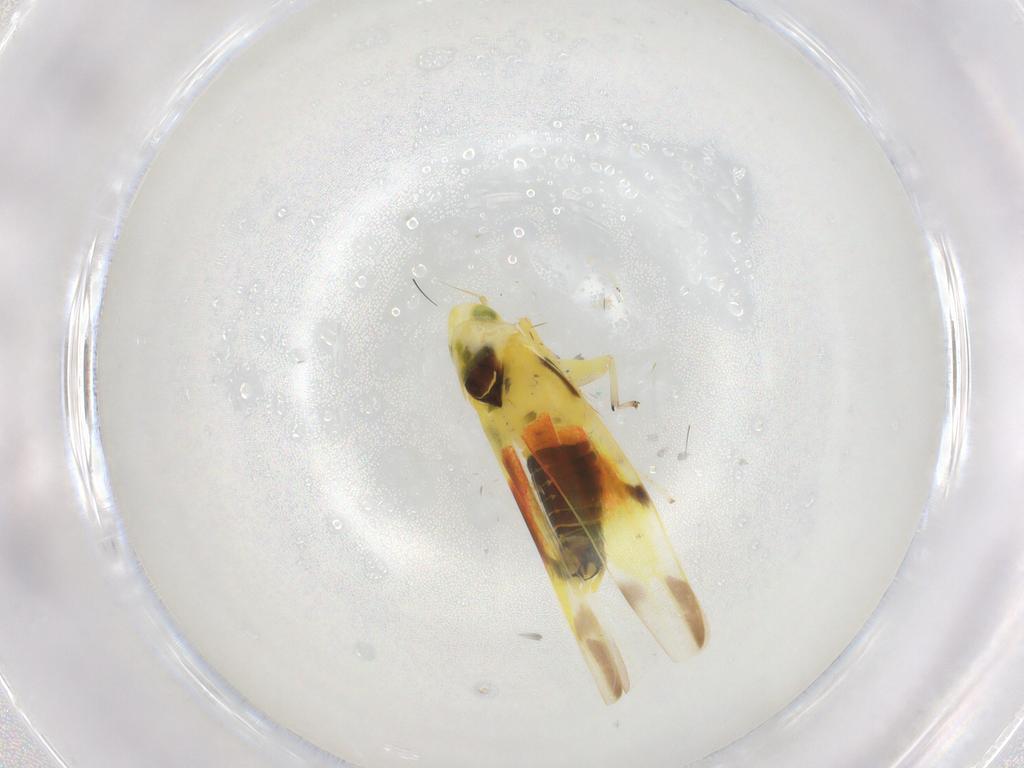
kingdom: Animalia
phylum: Arthropoda
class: Insecta
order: Hemiptera
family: Cicadellidae
